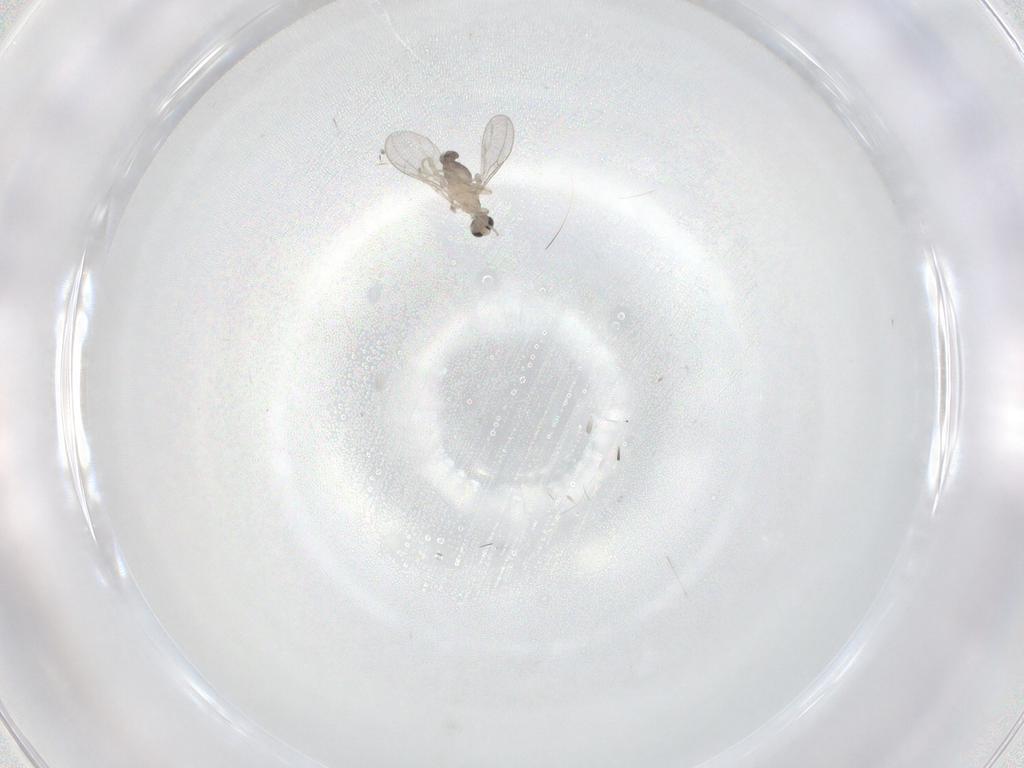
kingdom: Animalia
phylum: Arthropoda
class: Insecta
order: Diptera
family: Cecidomyiidae
